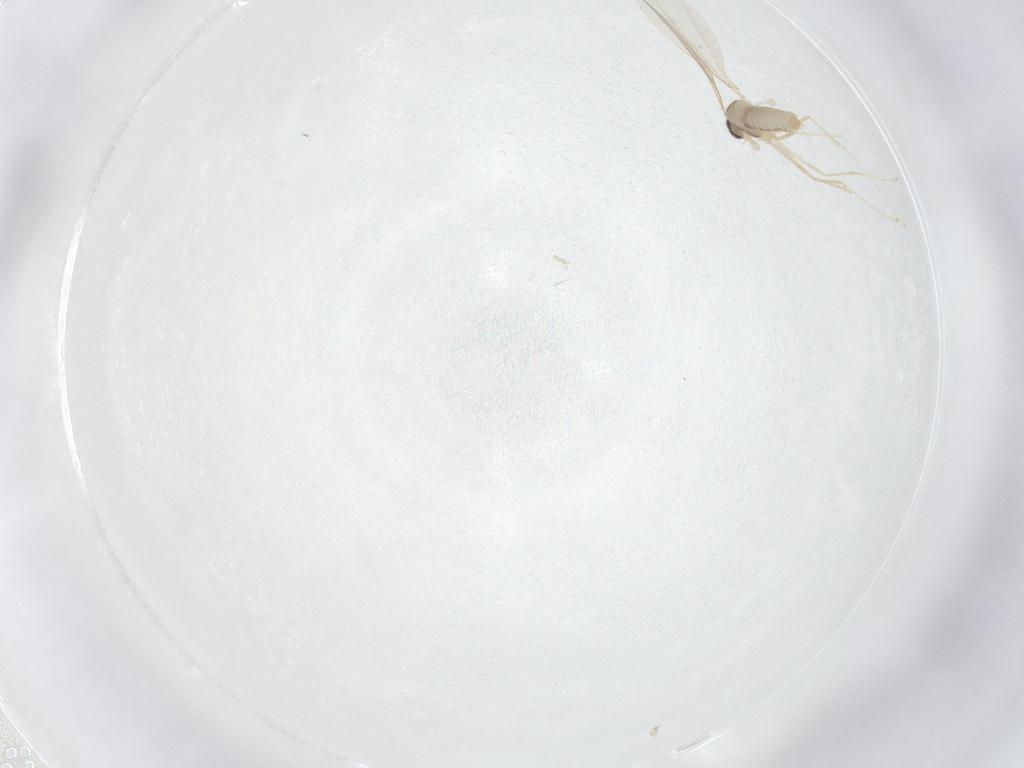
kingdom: Animalia
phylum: Arthropoda
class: Insecta
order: Diptera
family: Cecidomyiidae
